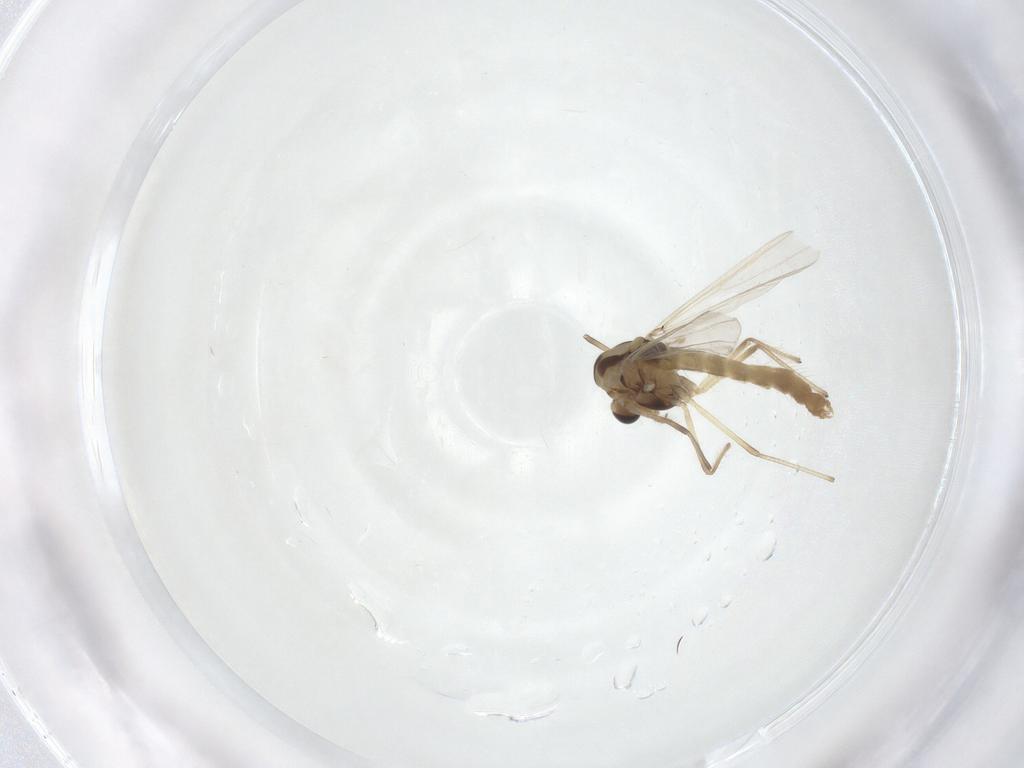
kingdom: Animalia
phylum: Arthropoda
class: Insecta
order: Diptera
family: Chironomidae
